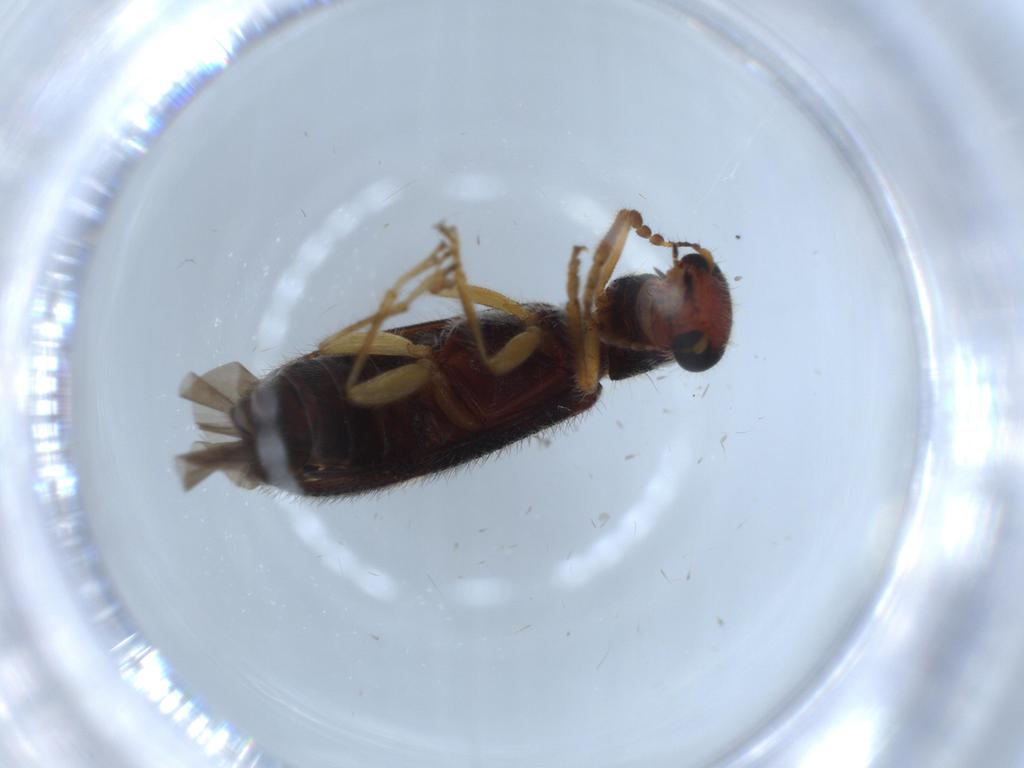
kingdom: Animalia
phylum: Arthropoda
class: Insecta
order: Coleoptera
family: Cleridae
